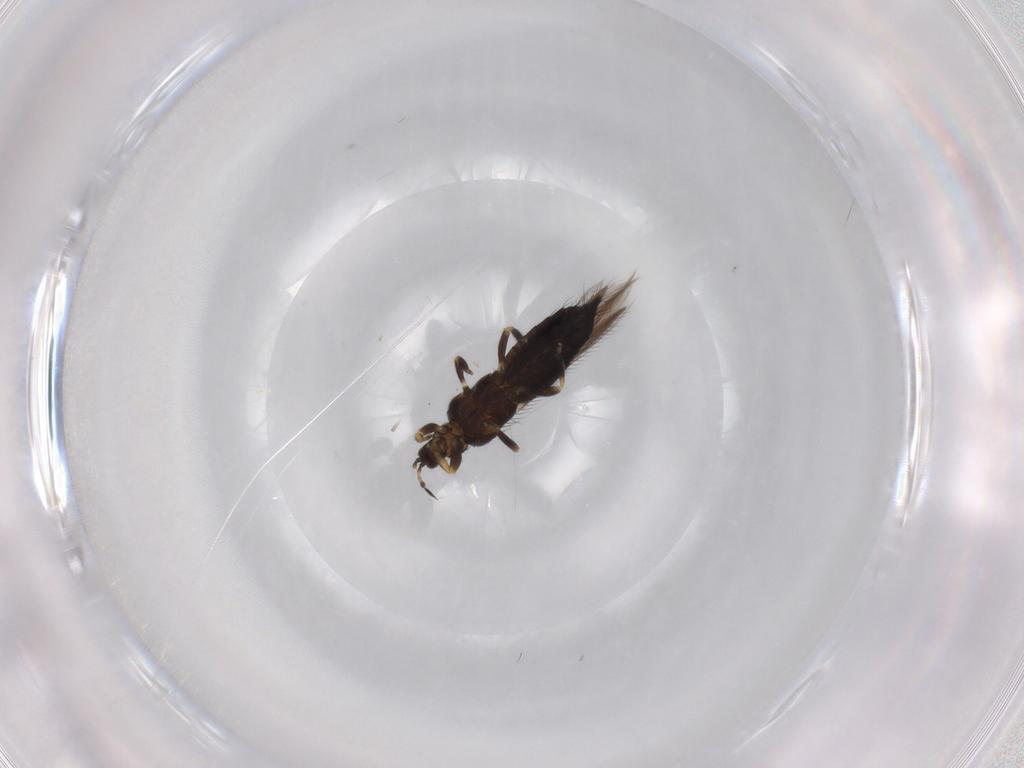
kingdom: Animalia
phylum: Arthropoda
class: Insecta
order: Thysanoptera
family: Thripidae
